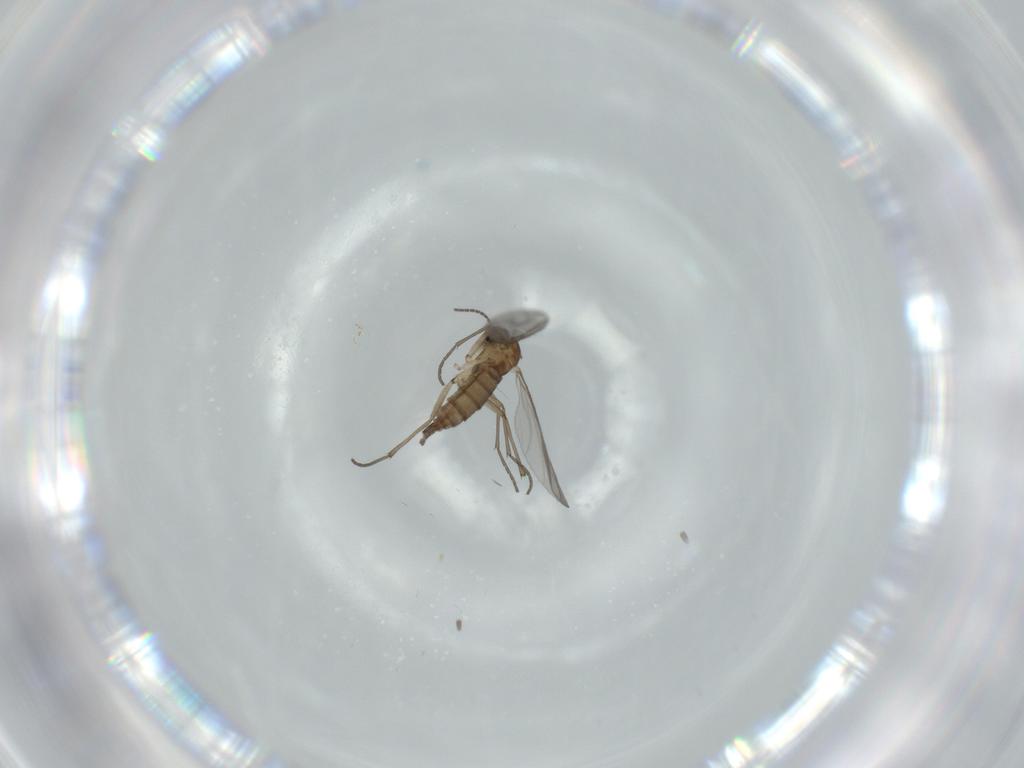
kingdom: Animalia
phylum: Arthropoda
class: Insecta
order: Diptera
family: Sciaridae
